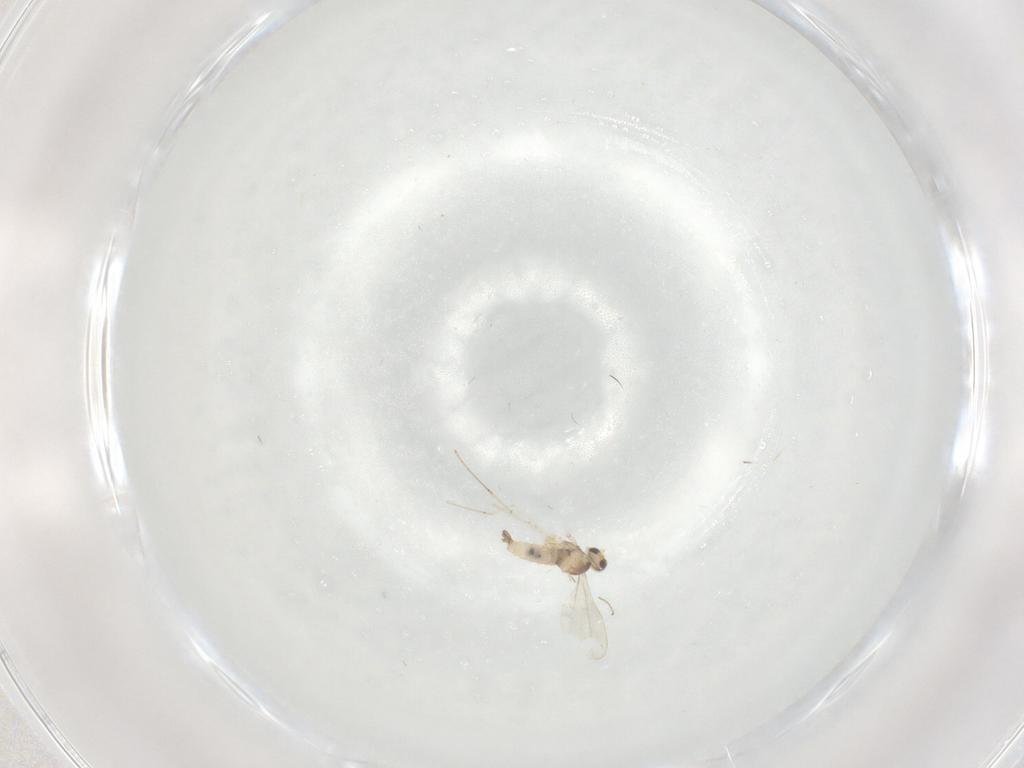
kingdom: Animalia
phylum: Arthropoda
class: Insecta
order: Diptera
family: Cecidomyiidae
